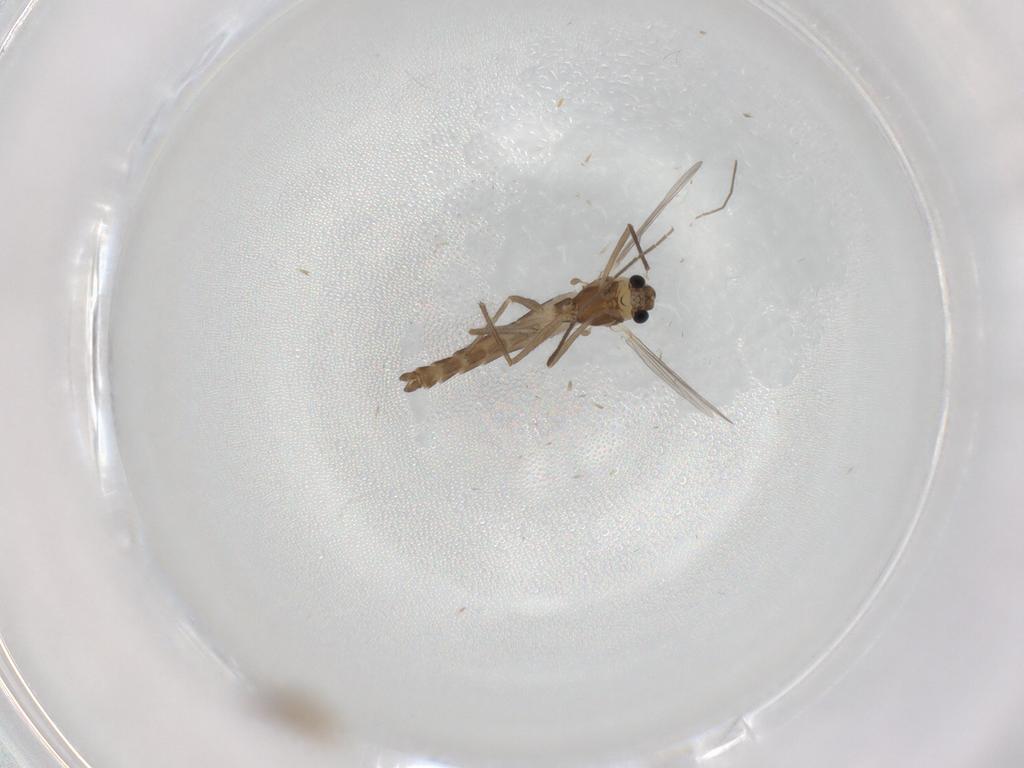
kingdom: Animalia
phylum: Arthropoda
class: Insecta
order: Diptera
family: Chironomidae
